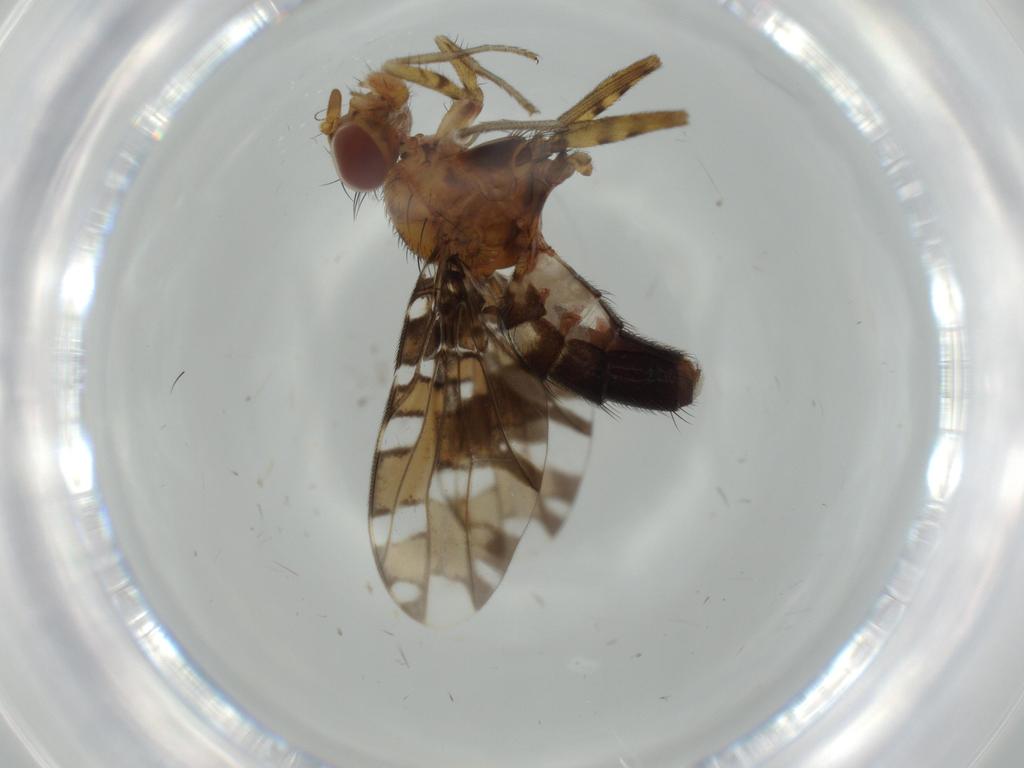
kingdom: Animalia
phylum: Arthropoda
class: Insecta
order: Diptera
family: Ulidiidae
